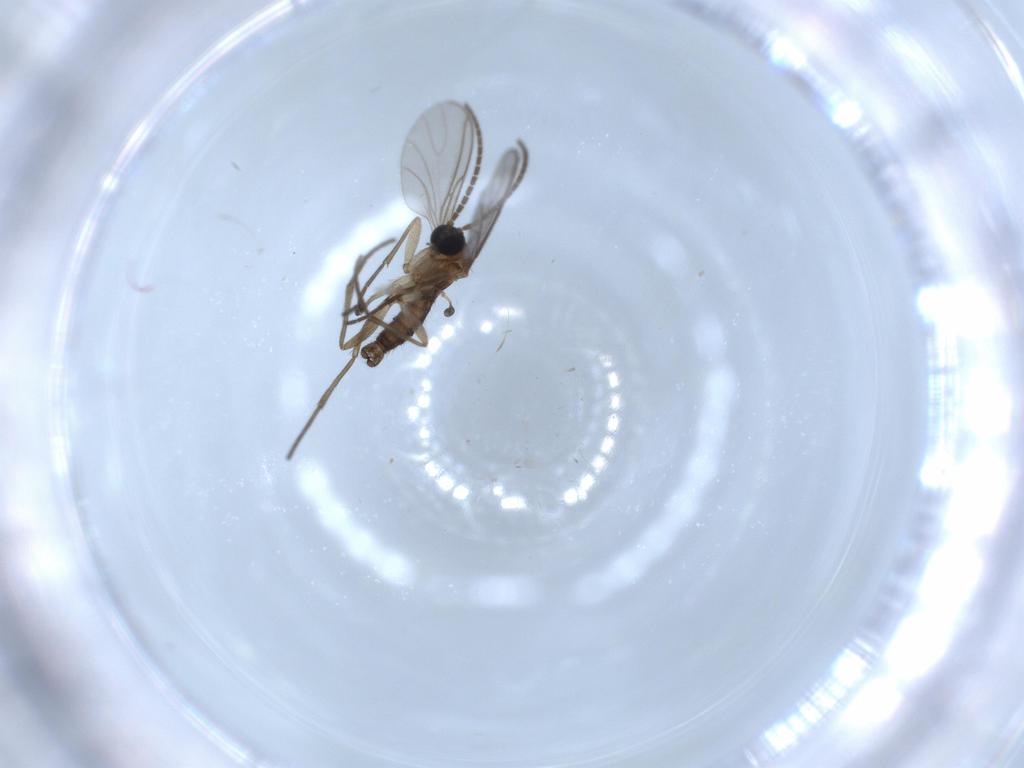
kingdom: Animalia
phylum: Arthropoda
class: Insecta
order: Diptera
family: Sciaridae
